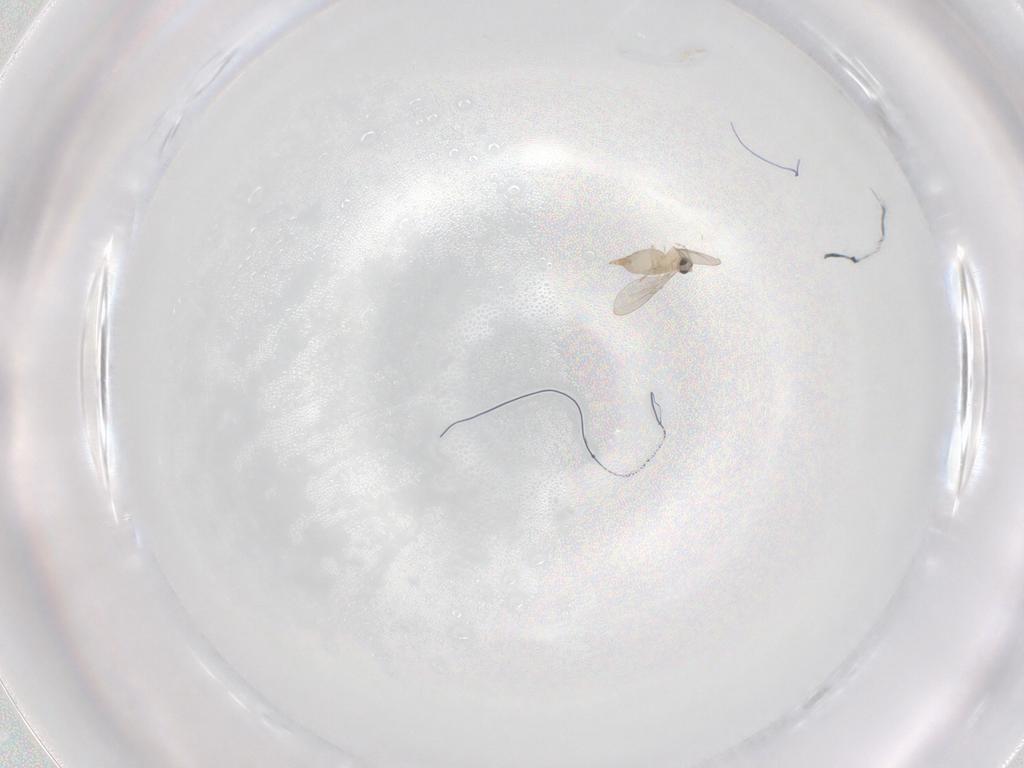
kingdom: Animalia
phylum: Arthropoda
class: Insecta
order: Diptera
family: Cecidomyiidae
